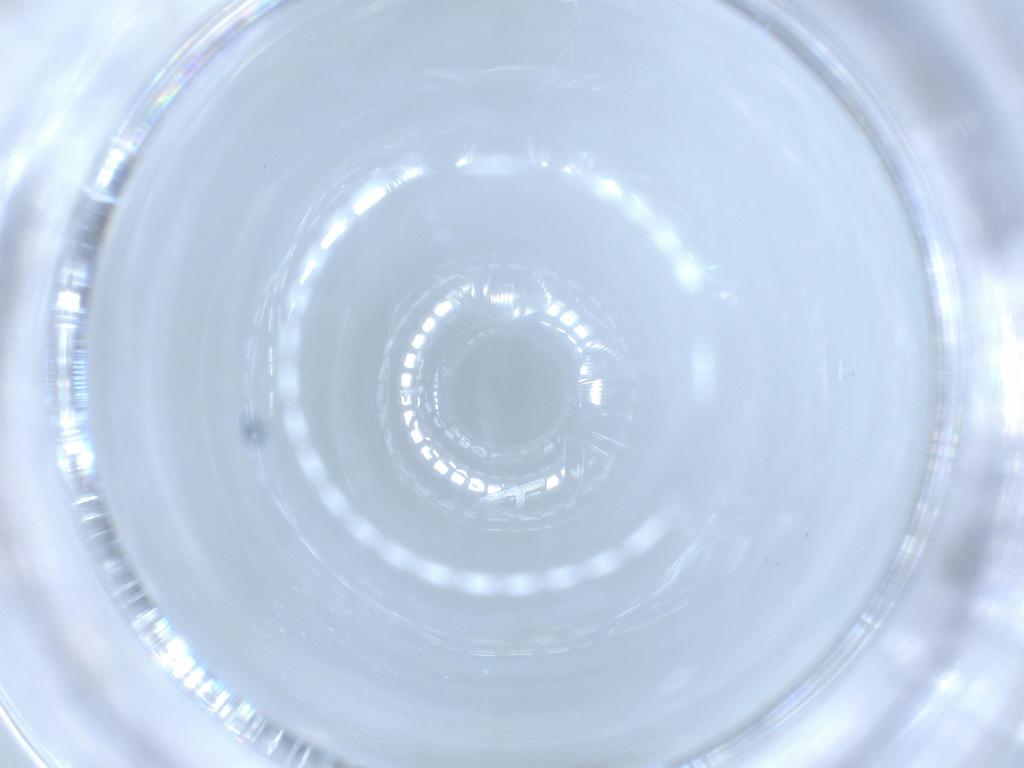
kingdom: Animalia
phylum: Arthropoda
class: Insecta
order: Hymenoptera
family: Scelionidae
